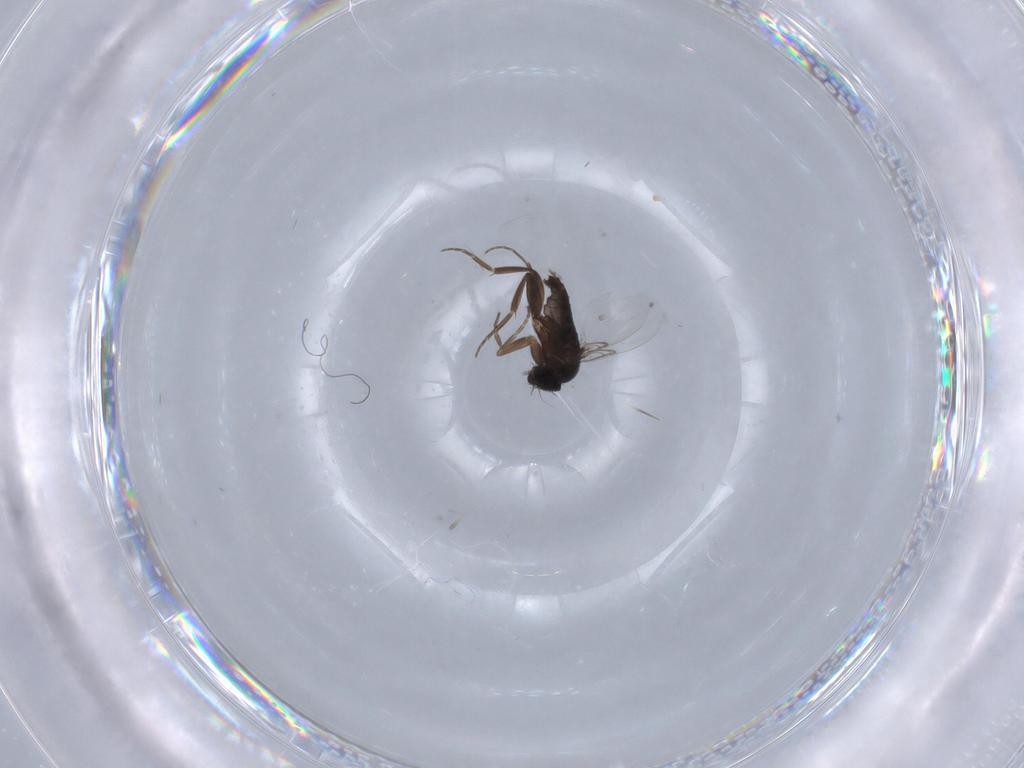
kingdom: Animalia
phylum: Arthropoda
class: Insecta
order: Diptera
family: Phoridae
